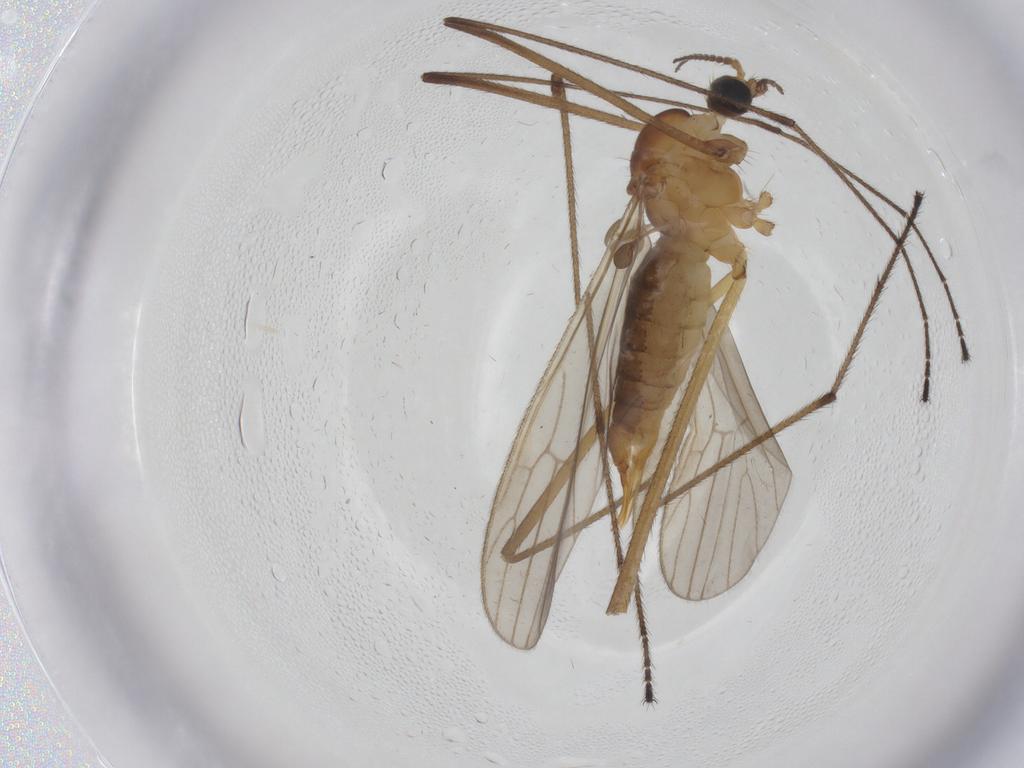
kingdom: Animalia
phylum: Arthropoda
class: Insecta
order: Diptera
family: Limoniidae
